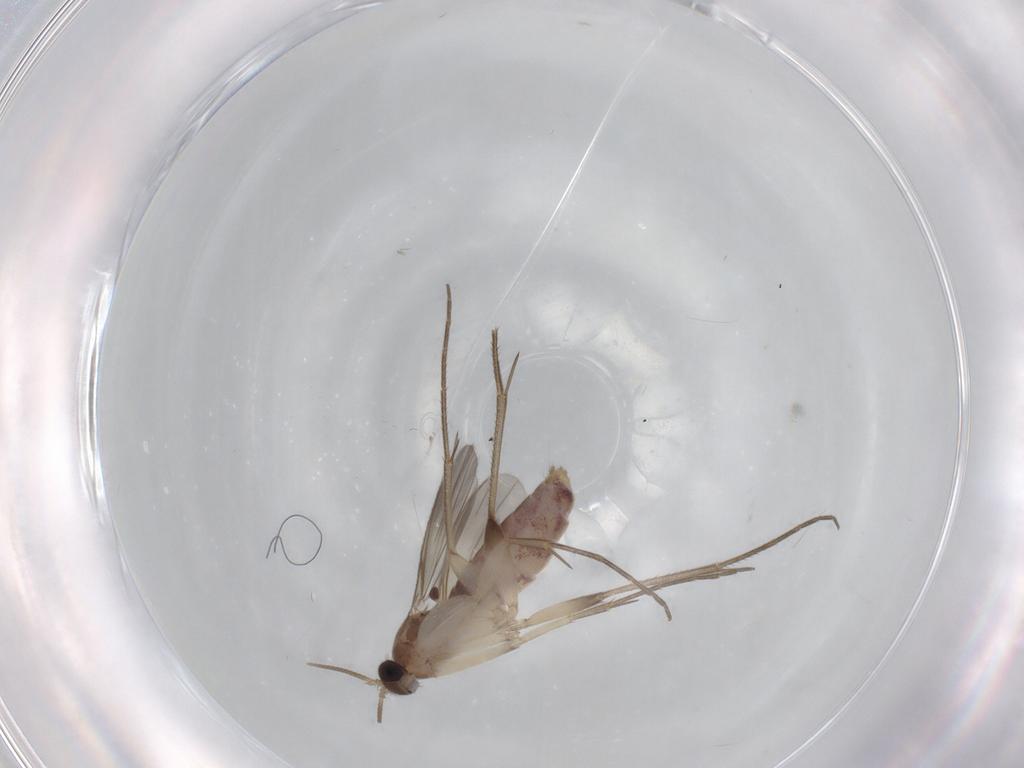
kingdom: Animalia
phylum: Arthropoda
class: Insecta
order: Diptera
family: Mycetophilidae
